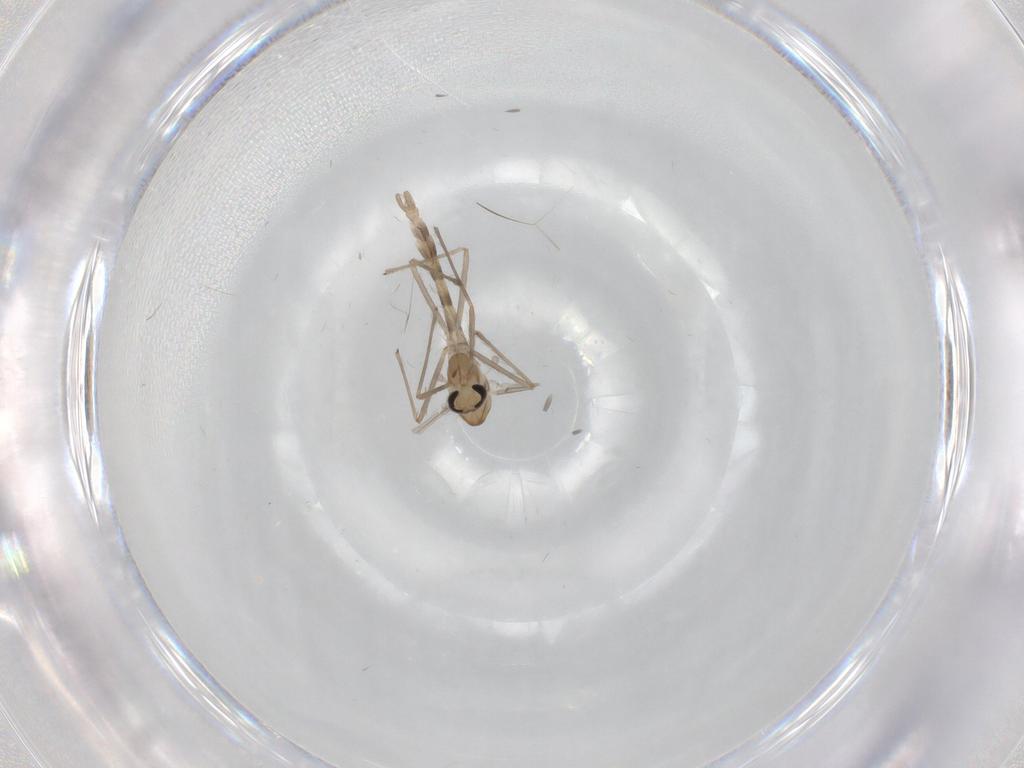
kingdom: Animalia
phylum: Arthropoda
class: Insecta
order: Diptera
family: Chironomidae
